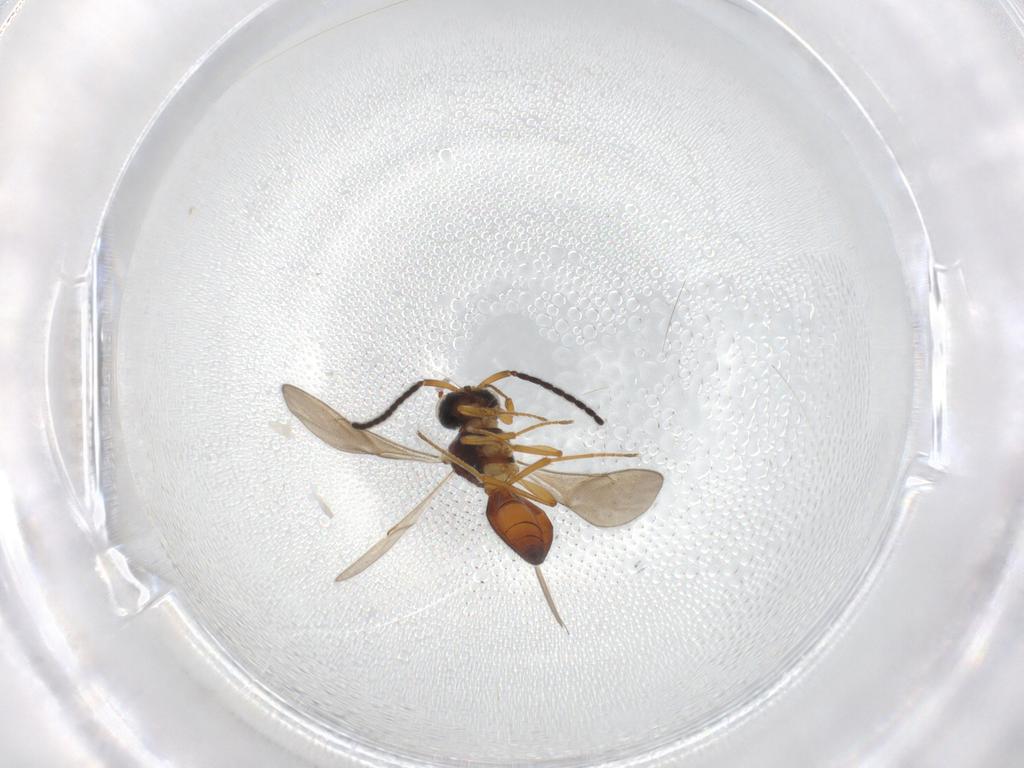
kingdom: Animalia
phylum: Arthropoda
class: Insecta
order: Hymenoptera
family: Scelionidae
